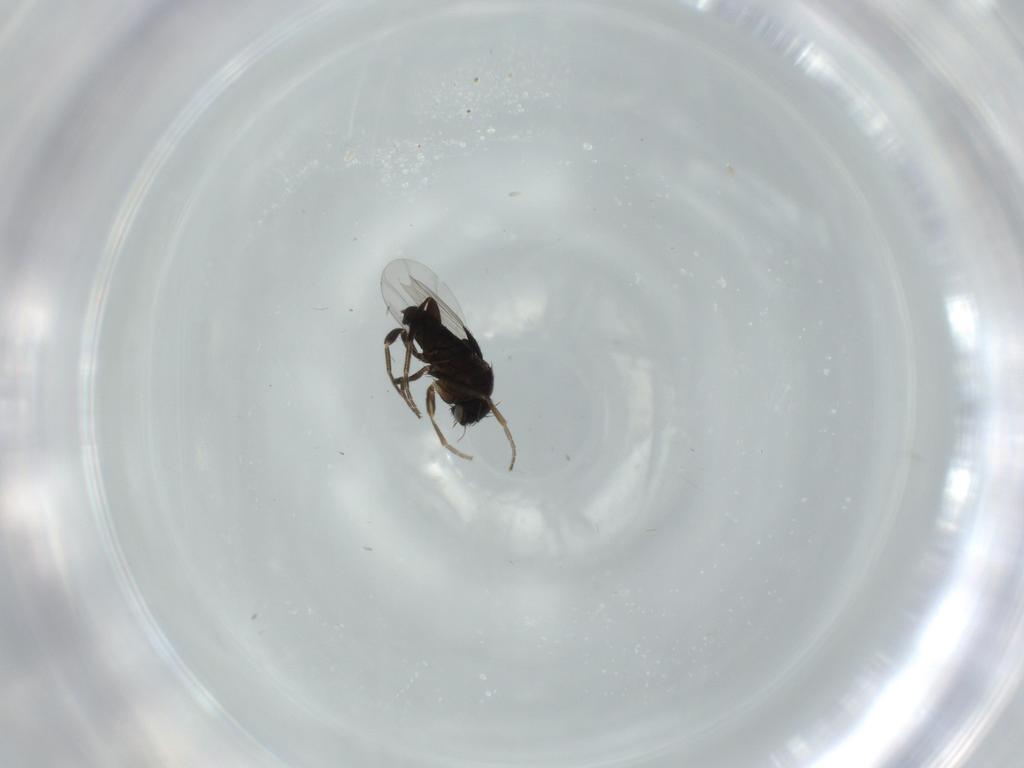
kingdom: Animalia
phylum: Arthropoda
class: Insecta
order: Diptera
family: Phoridae
